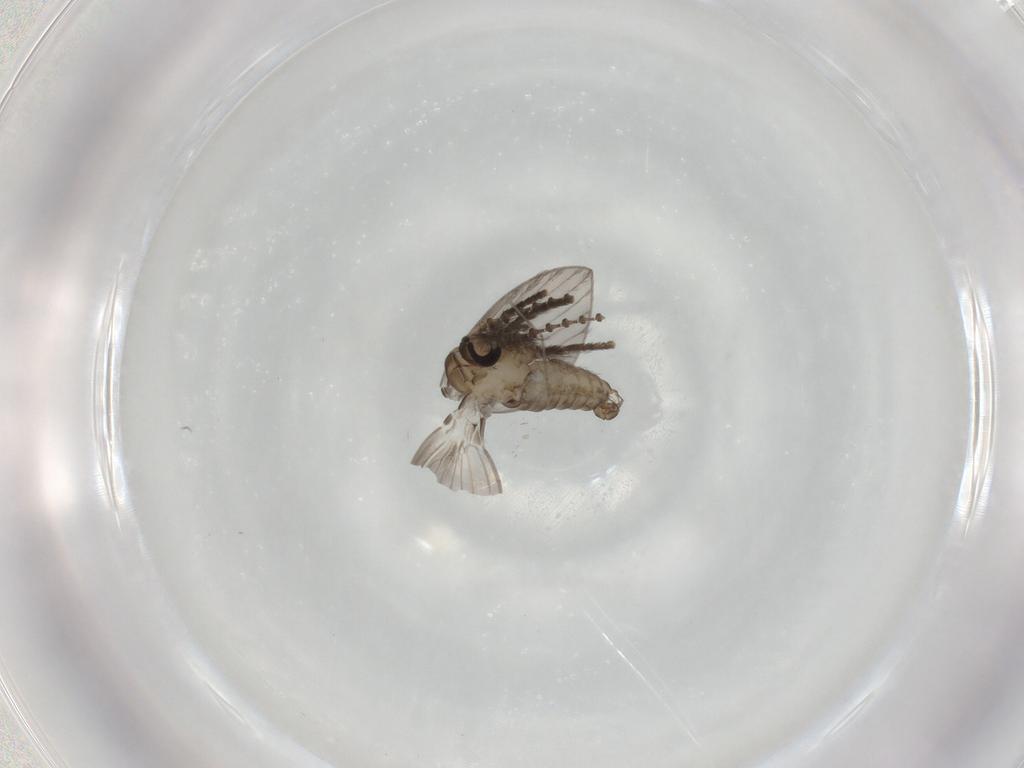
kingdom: Animalia
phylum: Arthropoda
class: Insecta
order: Diptera
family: Psychodidae
